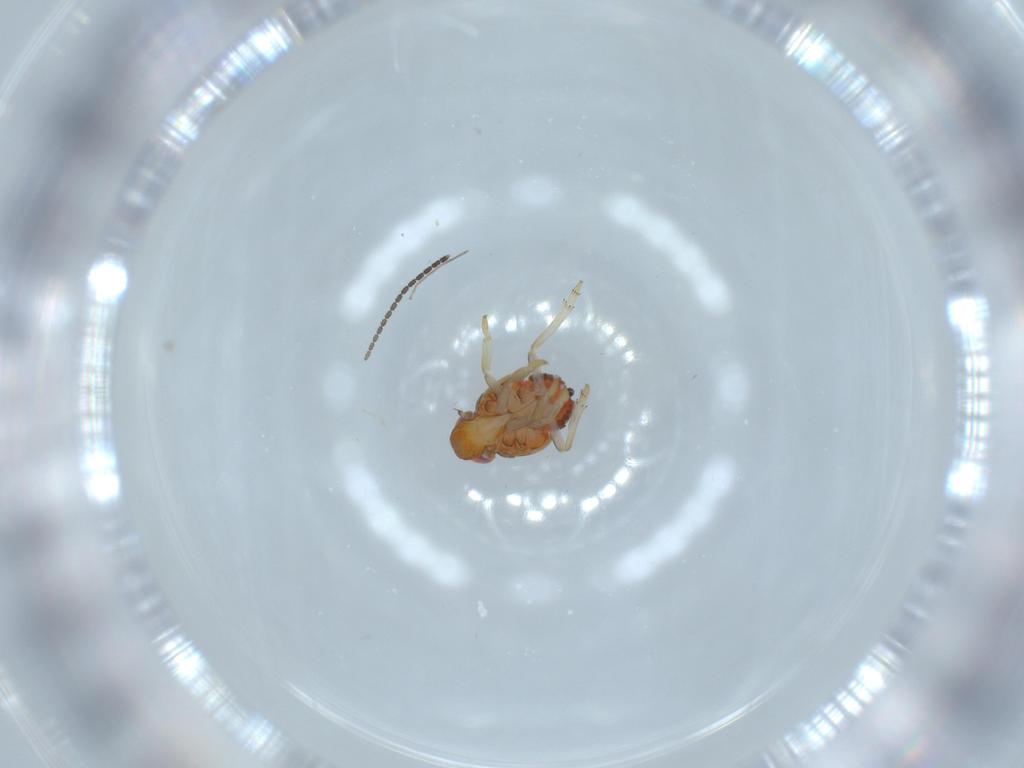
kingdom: Animalia
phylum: Arthropoda
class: Insecta
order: Hemiptera
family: Issidae
